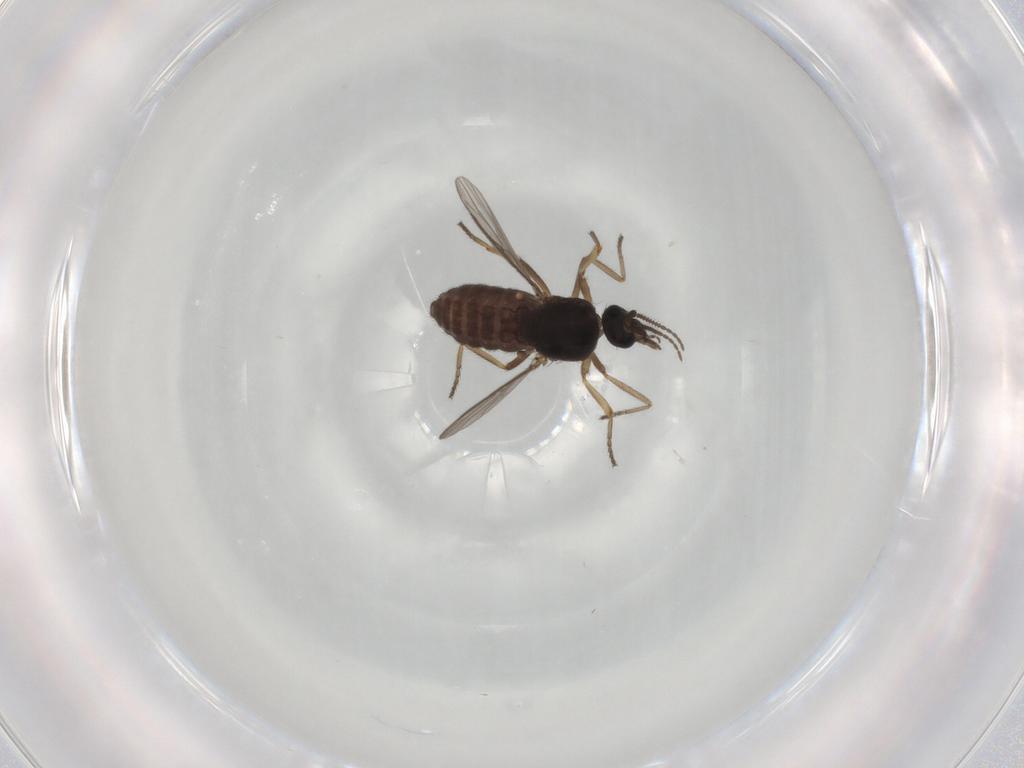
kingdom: Animalia
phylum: Arthropoda
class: Insecta
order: Diptera
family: Ceratopogonidae
